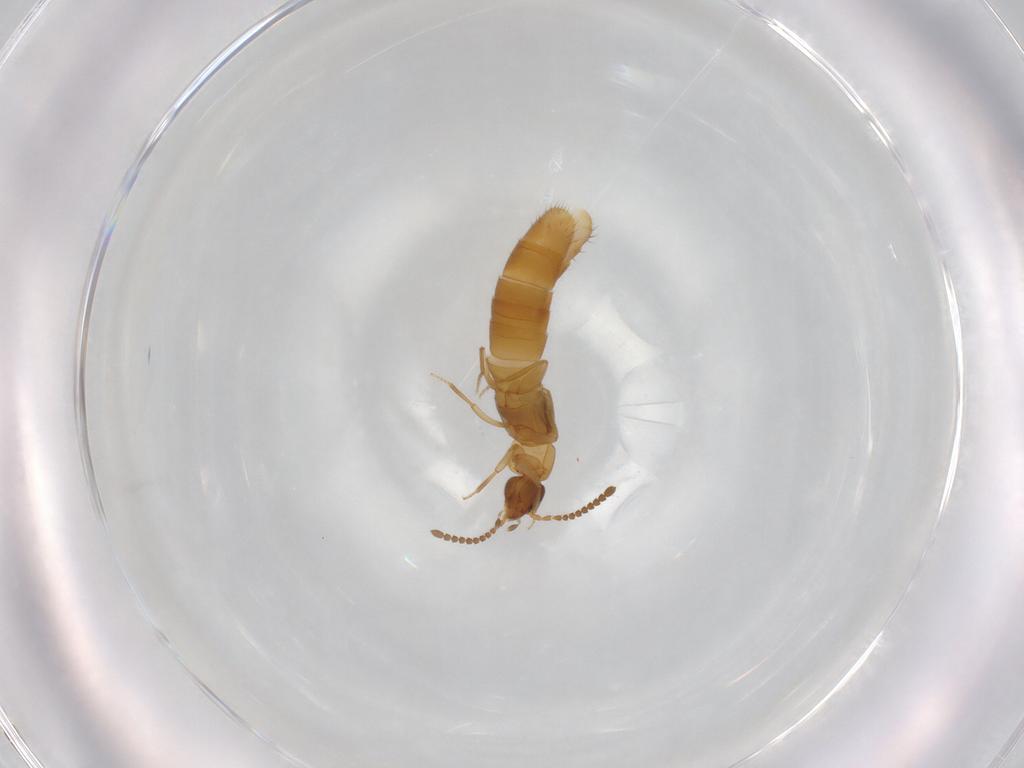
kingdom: Animalia
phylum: Arthropoda
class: Insecta
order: Coleoptera
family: Staphylinidae
